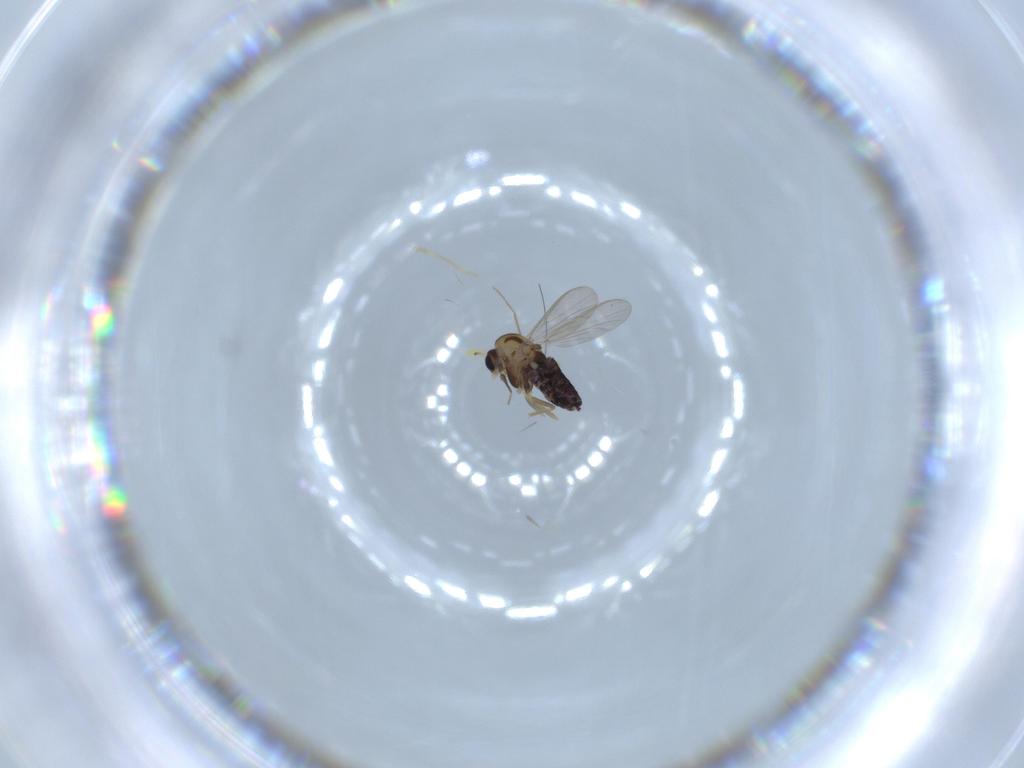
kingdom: Animalia
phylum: Arthropoda
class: Insecta
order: Diptera
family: Chironomidae
